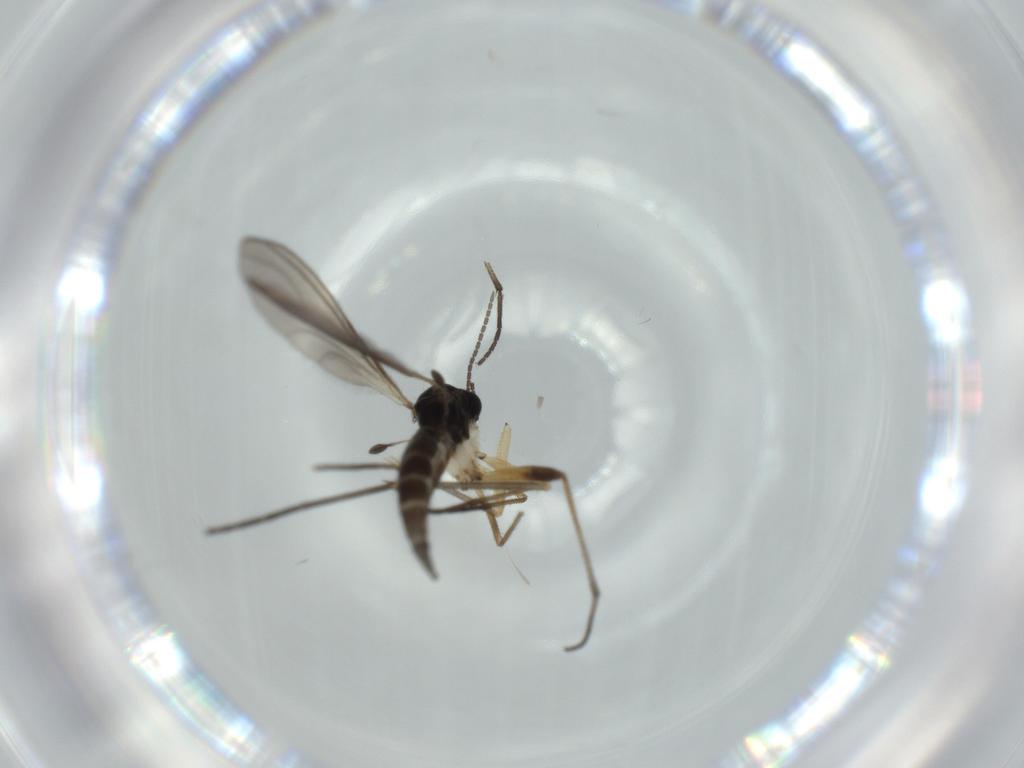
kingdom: Animalia
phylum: Arthropoda
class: Insecta
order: Diptera
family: Sciaridae
